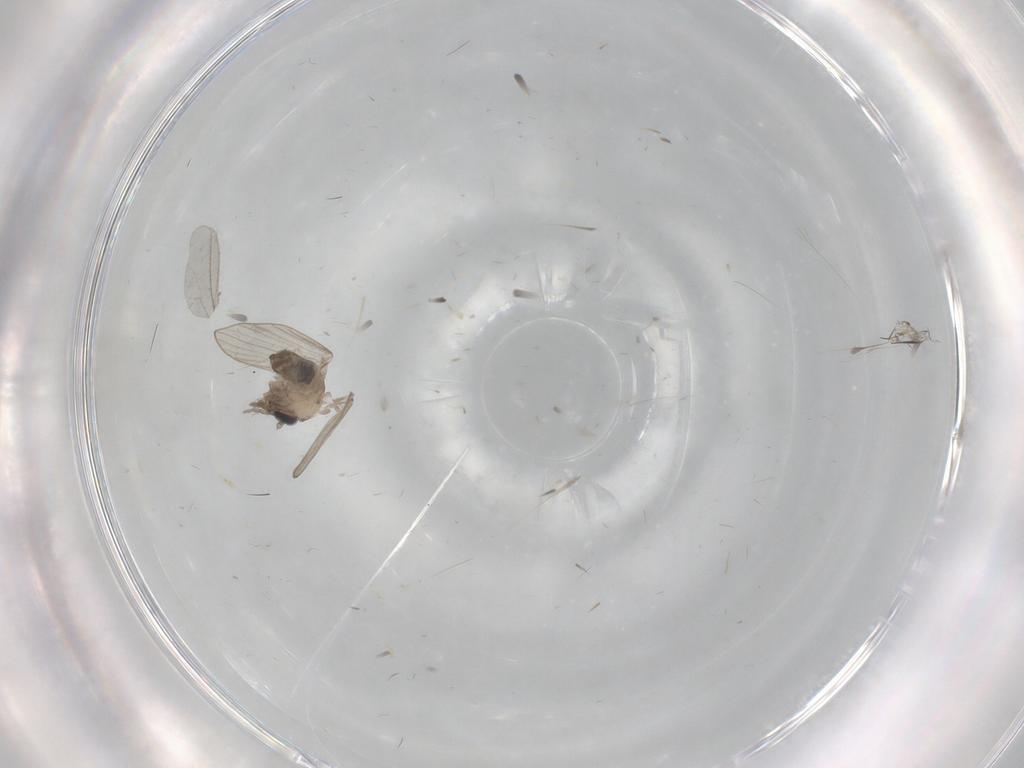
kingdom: Animalia
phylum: Arthropoda
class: Insecta
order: Diptera
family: Psychodidae
